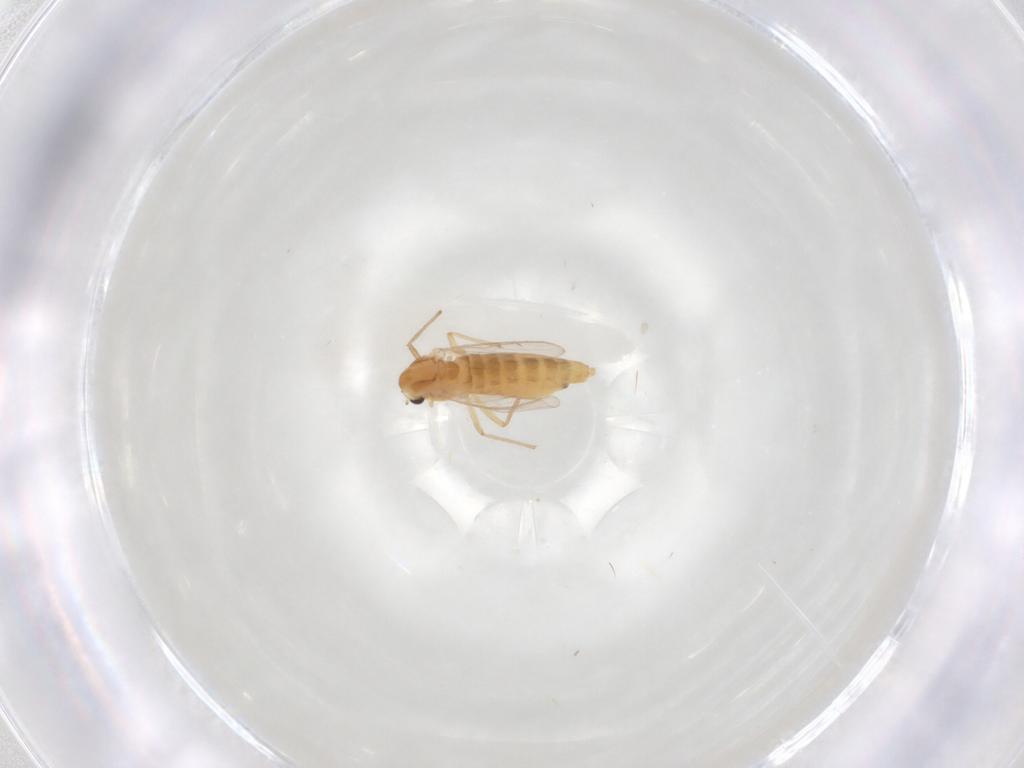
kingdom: Animalia
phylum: Arthropoda
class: Insecta
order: Diptera
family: Chironomidae
